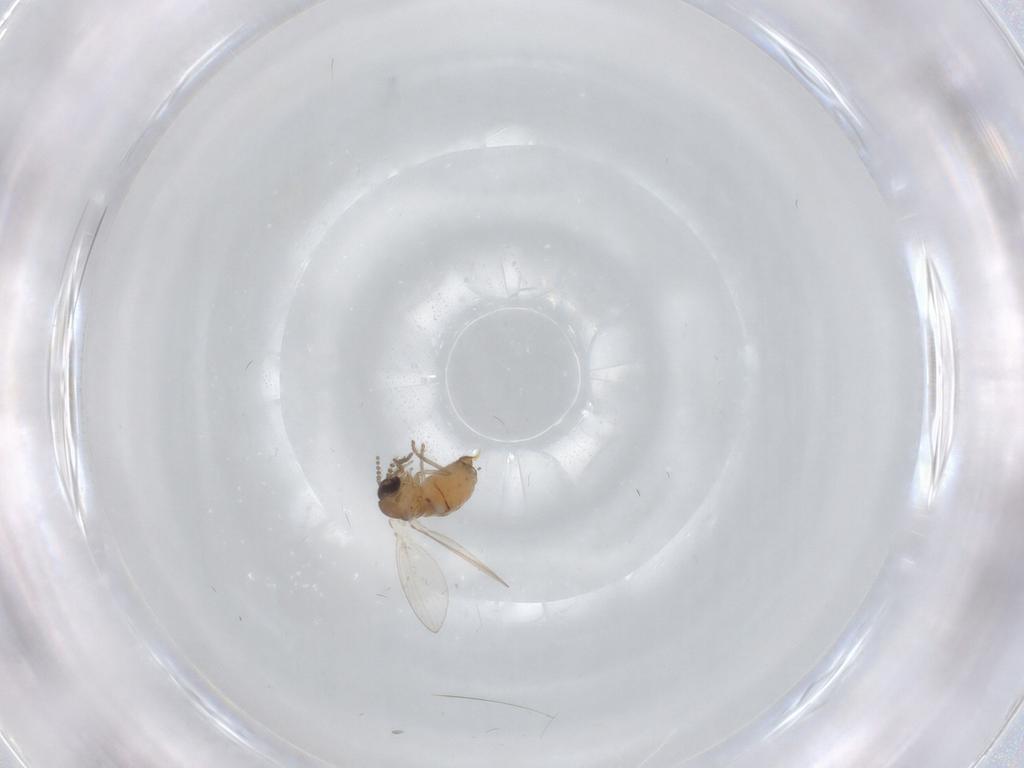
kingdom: Animalia
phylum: Arthropoda
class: Insecta
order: Diptera
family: Psychodidae
